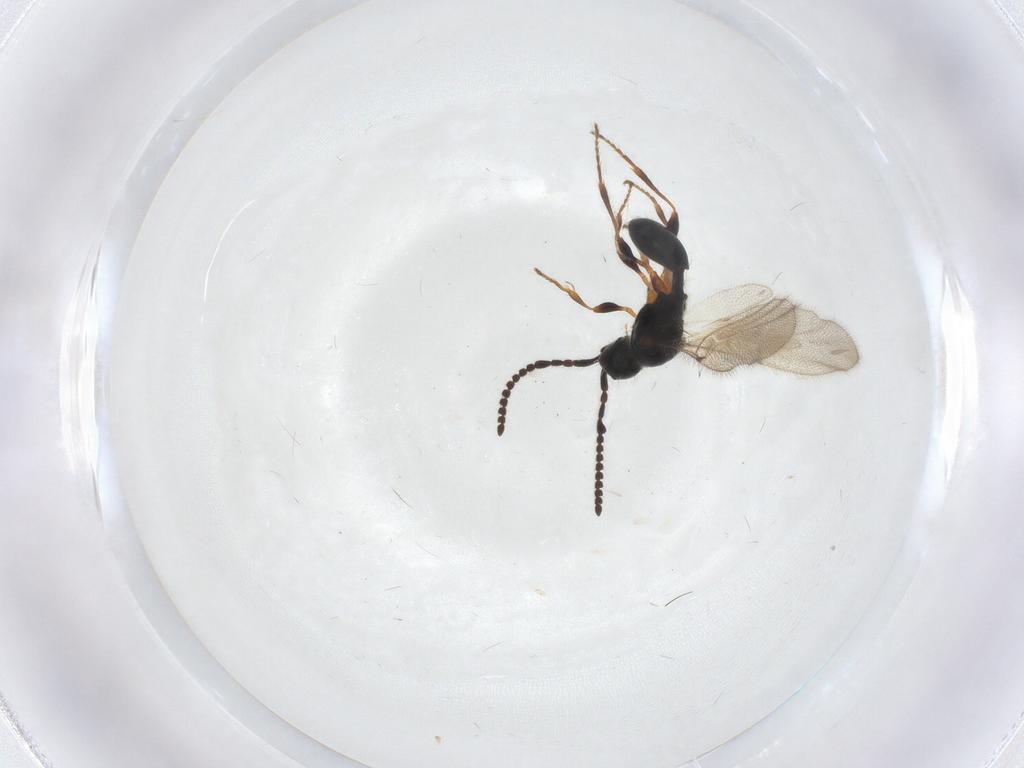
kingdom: Animalia
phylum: Arthropoda
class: Insecta
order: Hymenoptera
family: Diapriidae
